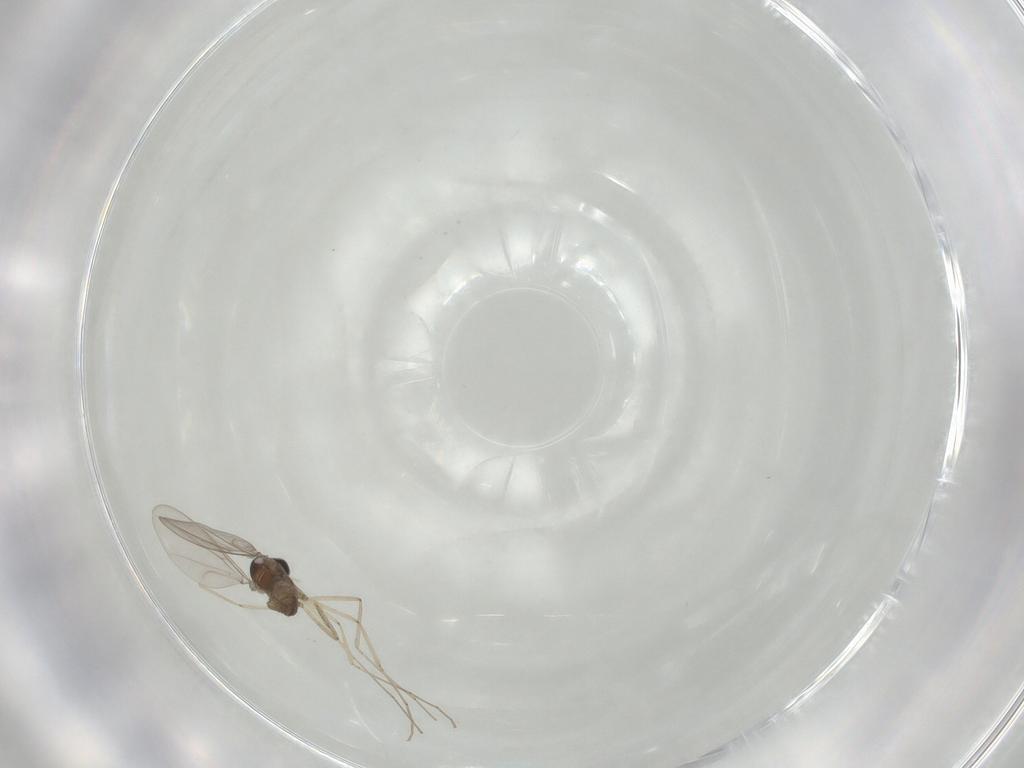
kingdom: Animalia
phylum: Arthropoda
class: Insecta
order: Diptera
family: Cecidomyiidae
